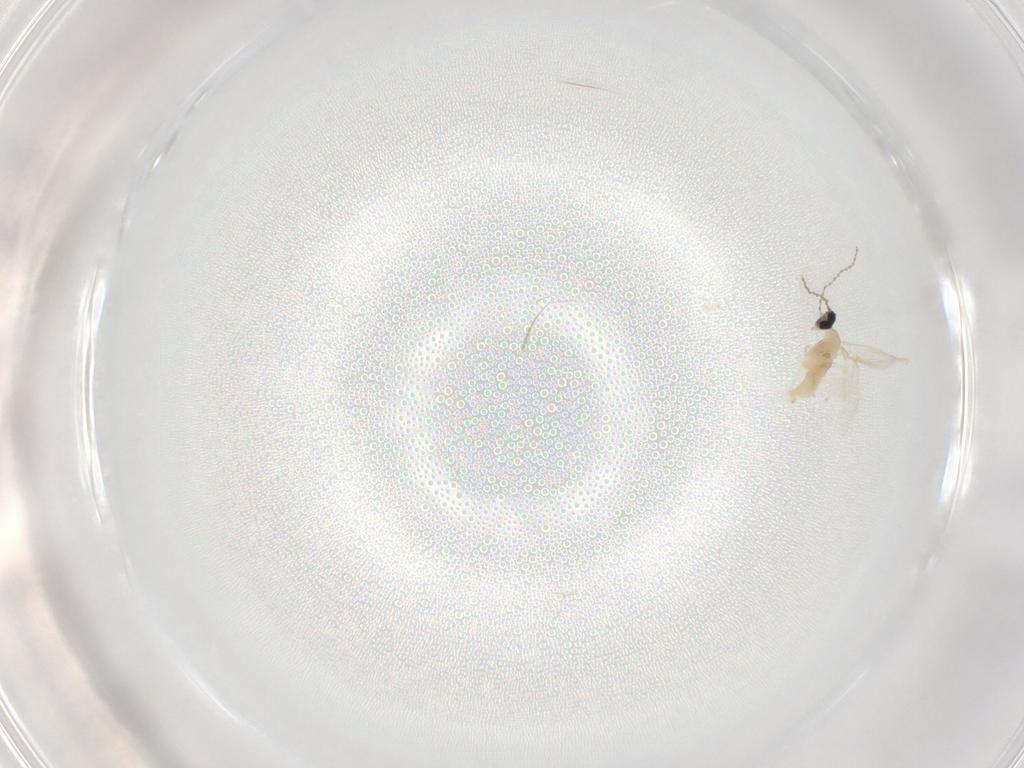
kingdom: Animalia
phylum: Arthropoda
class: Insecta
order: Diptera
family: Cecidomyiidae
